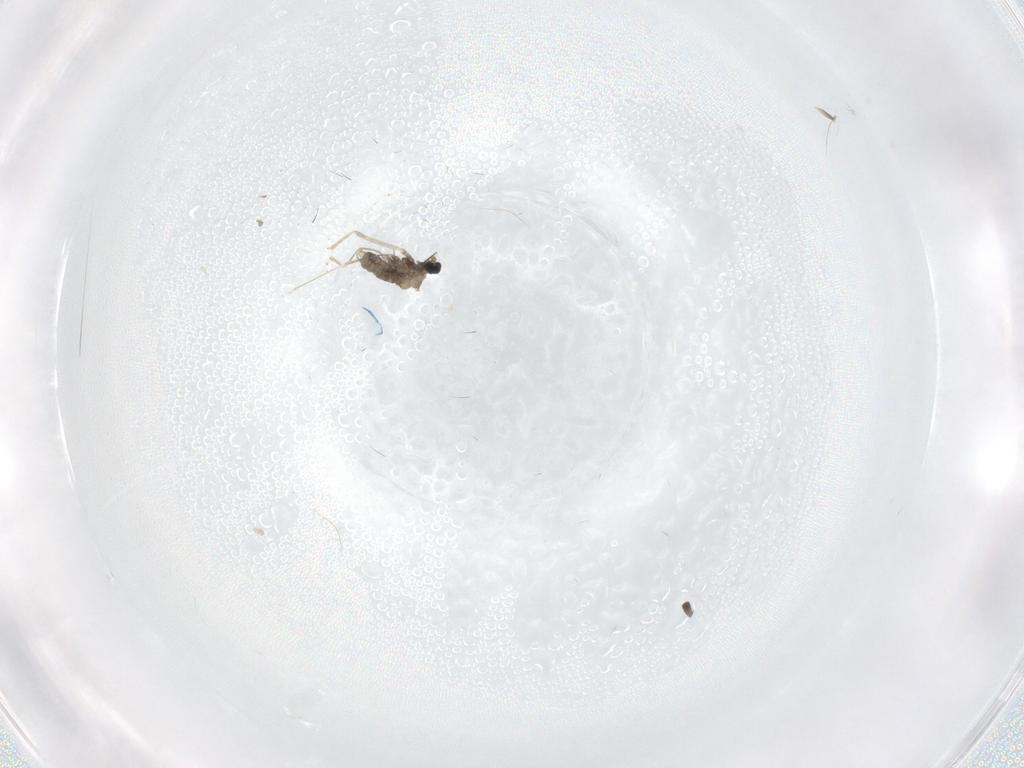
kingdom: Animalia
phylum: Arthropoda
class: Insecta
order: Diptera
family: Cecidomyiidae
